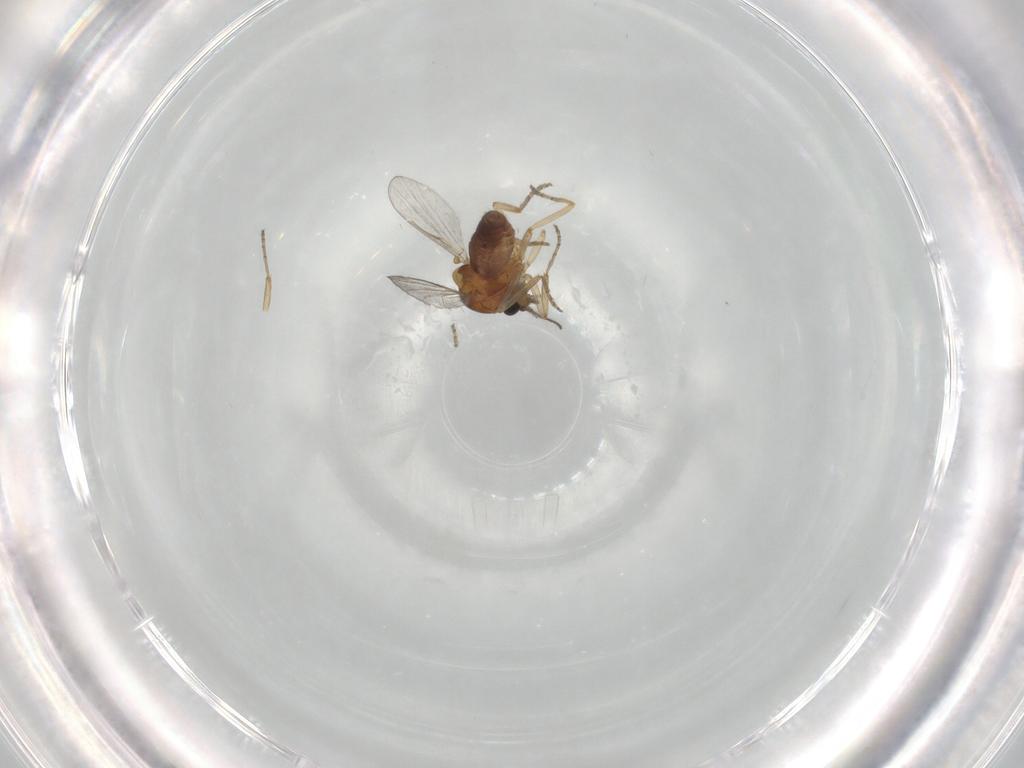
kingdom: Animalia
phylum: Arthropoda
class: Insecta
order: Diptera
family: Ceratopogonidae
